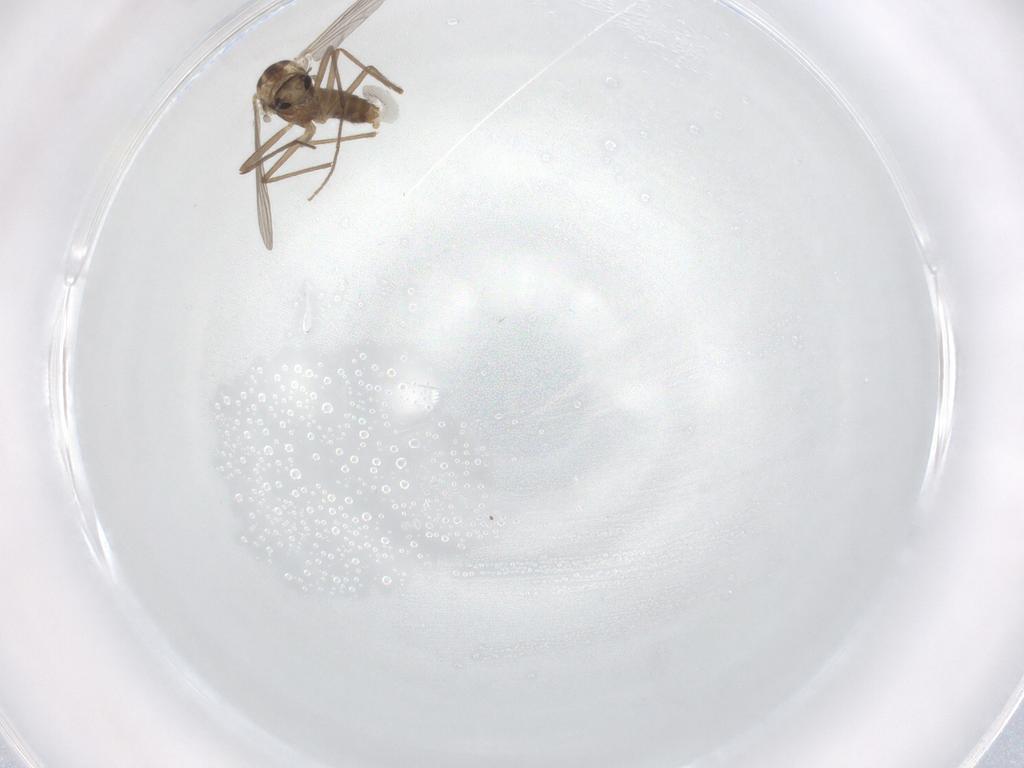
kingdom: Animalia
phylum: Arthropoda
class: Insecta
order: Diptera
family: Chironomidae
